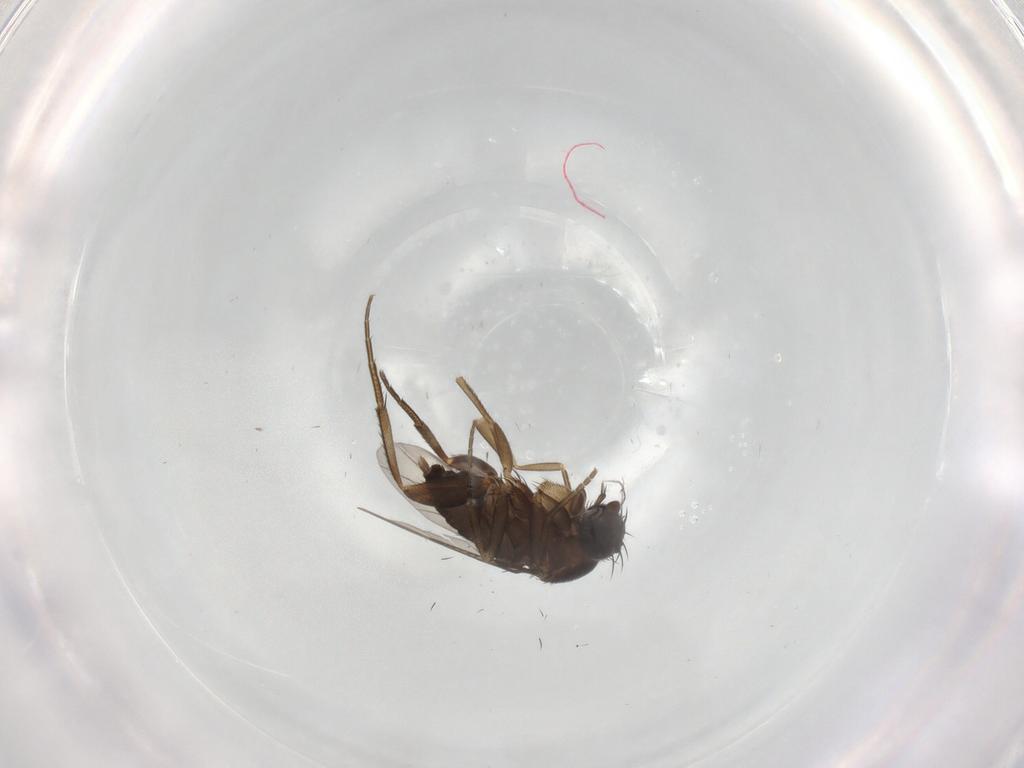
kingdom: Animalia
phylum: Arthropoda
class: Insecta
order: Diptera
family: Phoridae
